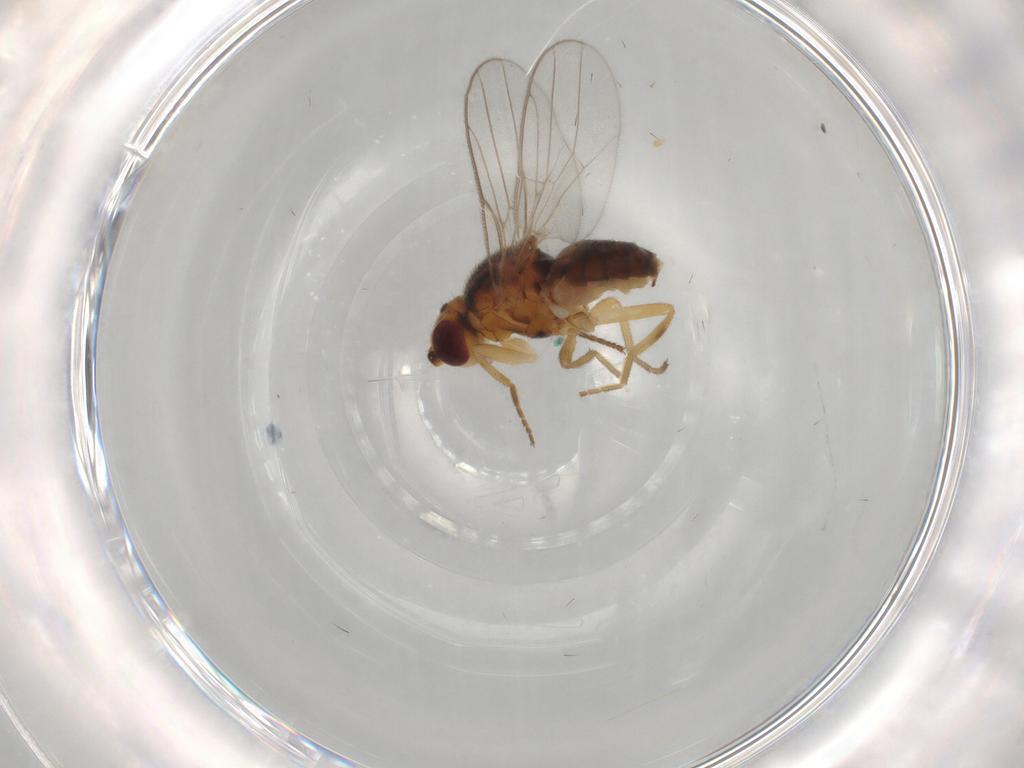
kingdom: Animalia
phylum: Arthropoda
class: Insecta
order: Diptera
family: Chloropidae
